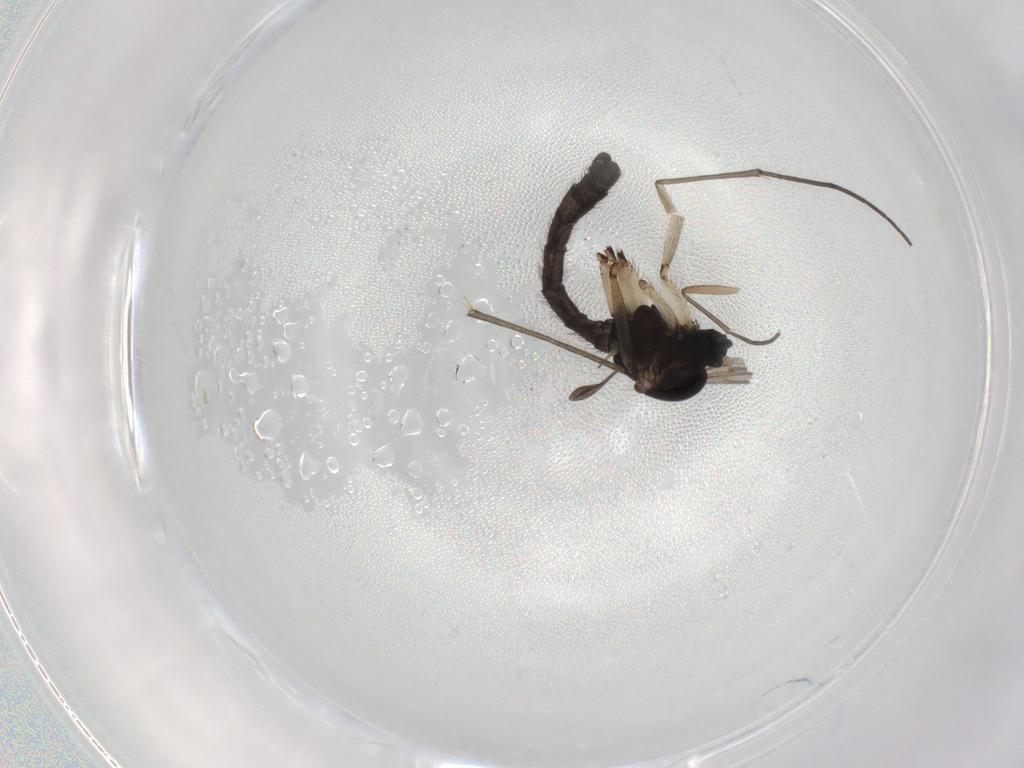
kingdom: Animalia
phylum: Arthropoda
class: Insecta
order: Diptera
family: Sciaridae
